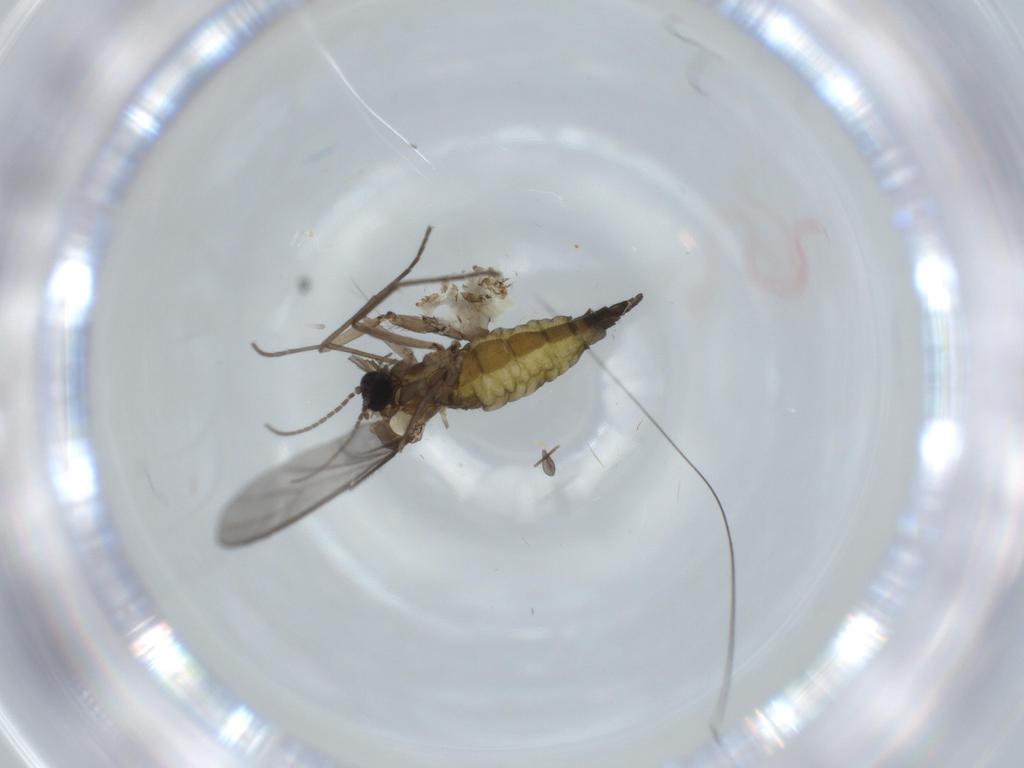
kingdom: Animalia
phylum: Arthropoda
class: Insecta
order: Diptera
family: Sciaridae
